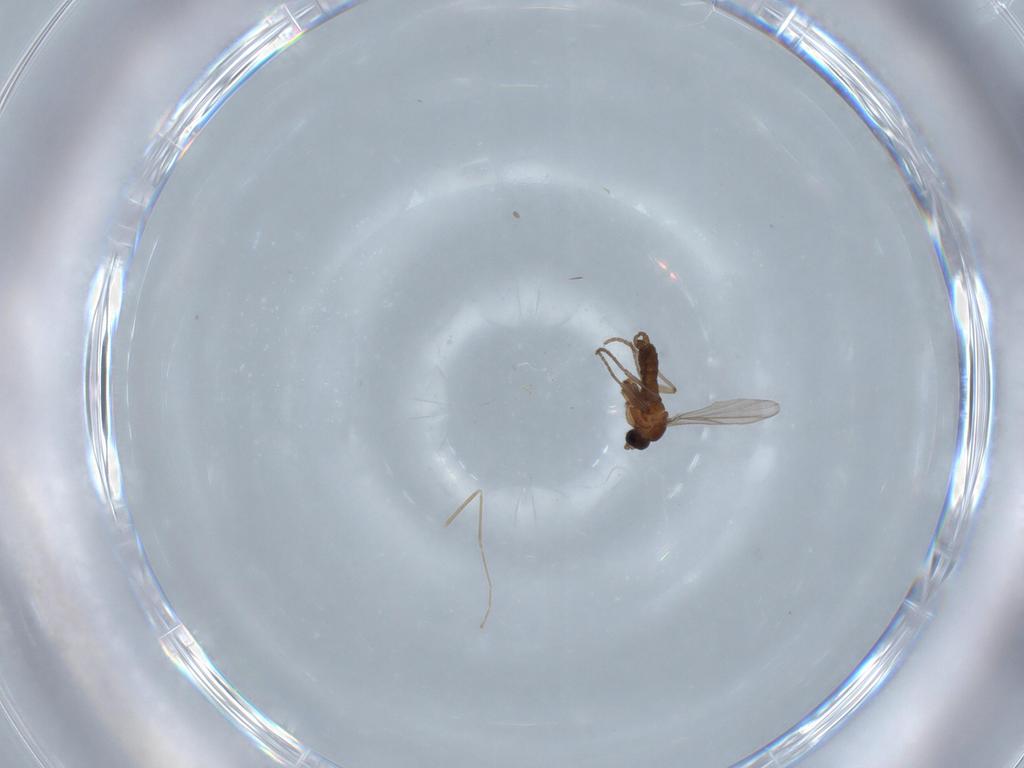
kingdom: Animalia
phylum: Arthropoda
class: Insecta
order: Diptera
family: Cecidomyiidae
